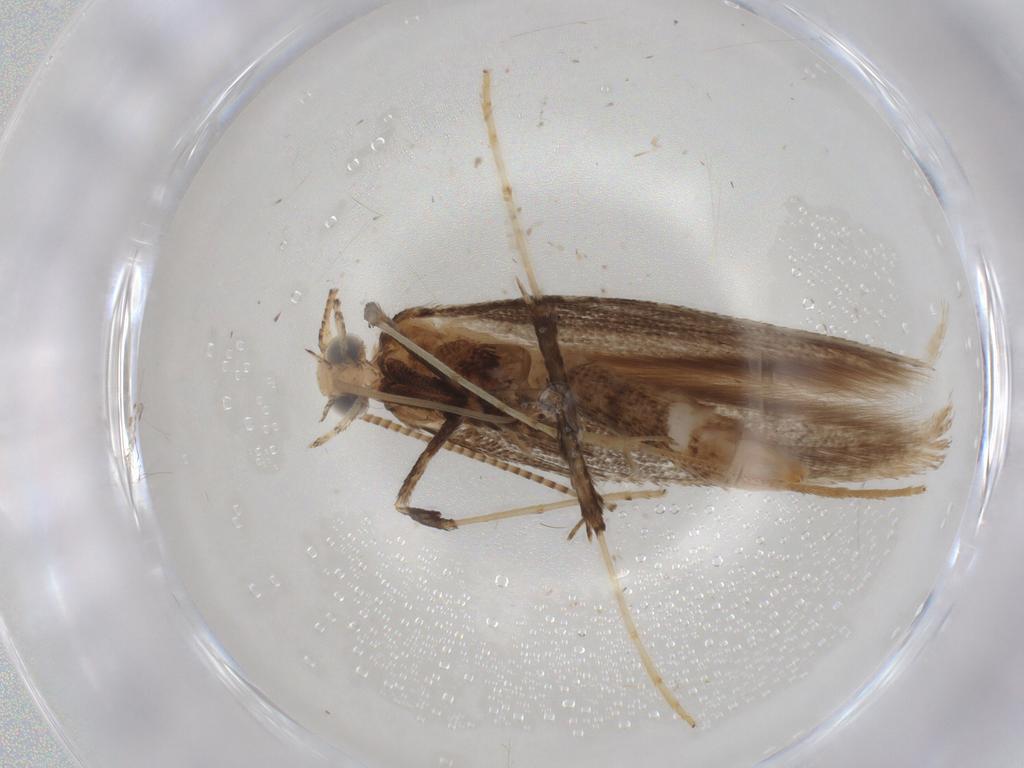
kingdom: Animalia
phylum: Arthropoda
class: Insecta
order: Lepidoptera
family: Gracillariidae
